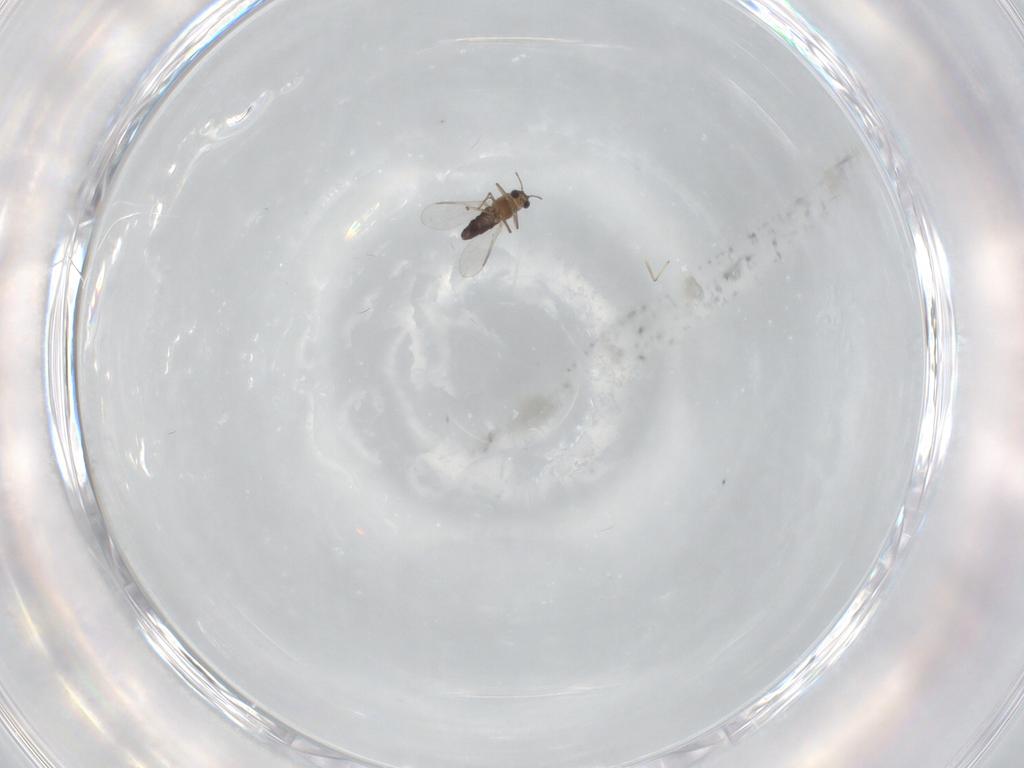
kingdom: Animalia
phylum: Arthropoda
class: Insecta
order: Diptera
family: Chironomidae
